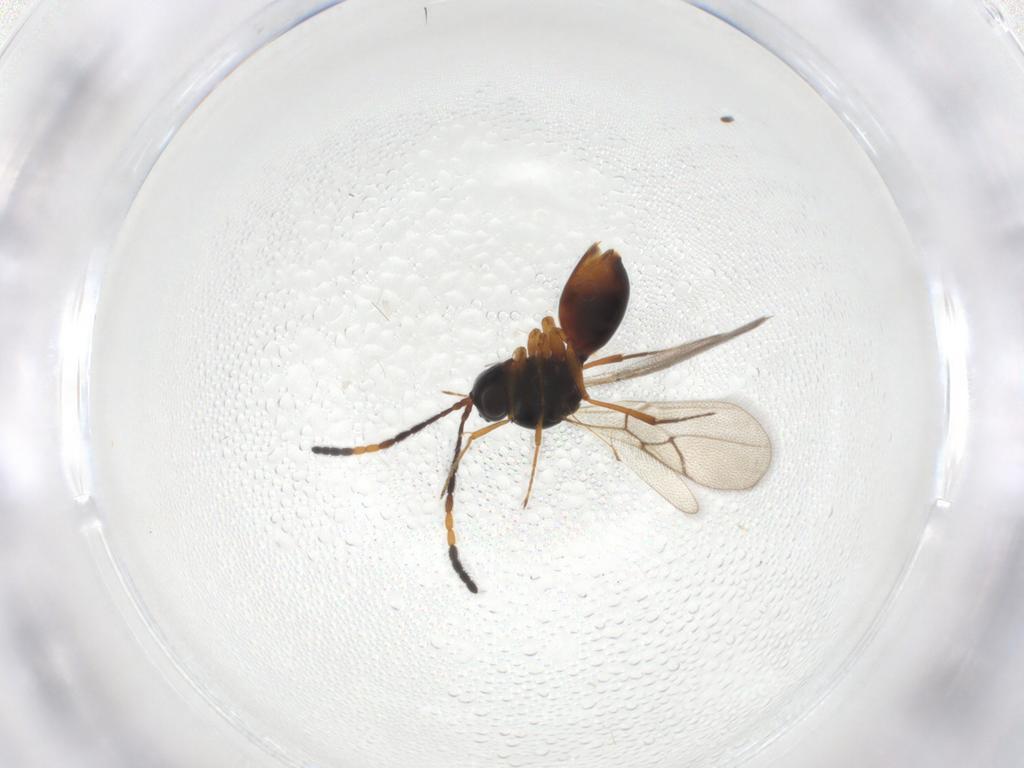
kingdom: Animalia
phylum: Arthropoda
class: Insecta
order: Hymenoptera
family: Figitidae
